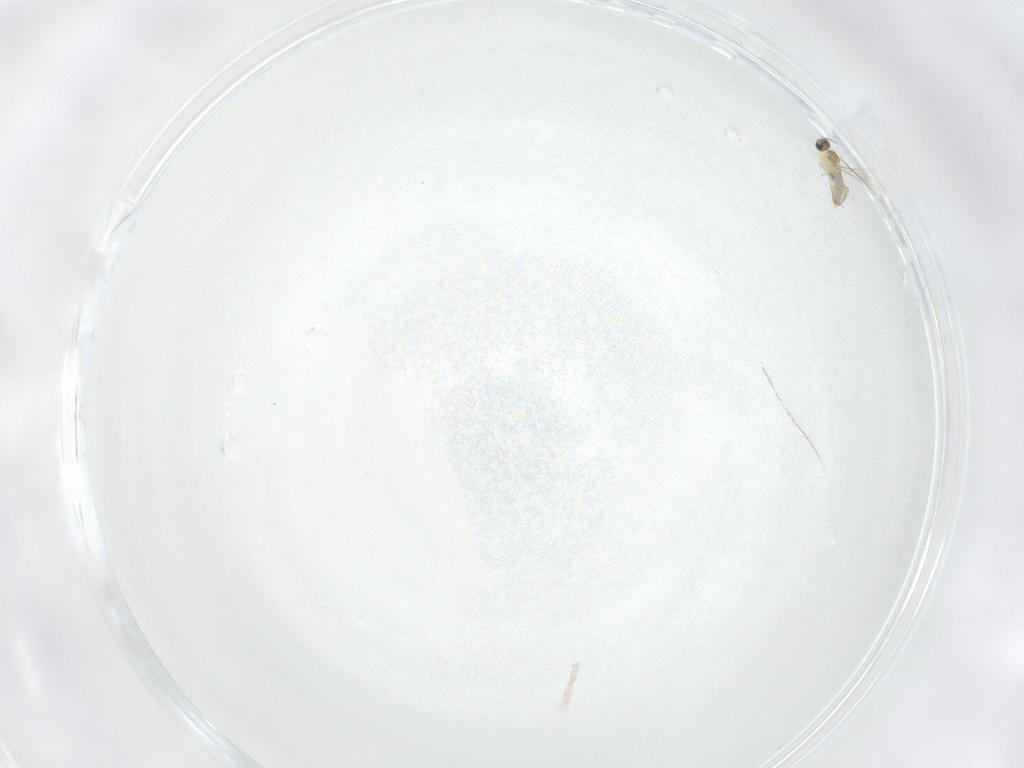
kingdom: Animalia
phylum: Arthropoda
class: Insecta
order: Diptera
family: Cecidomyiidae
